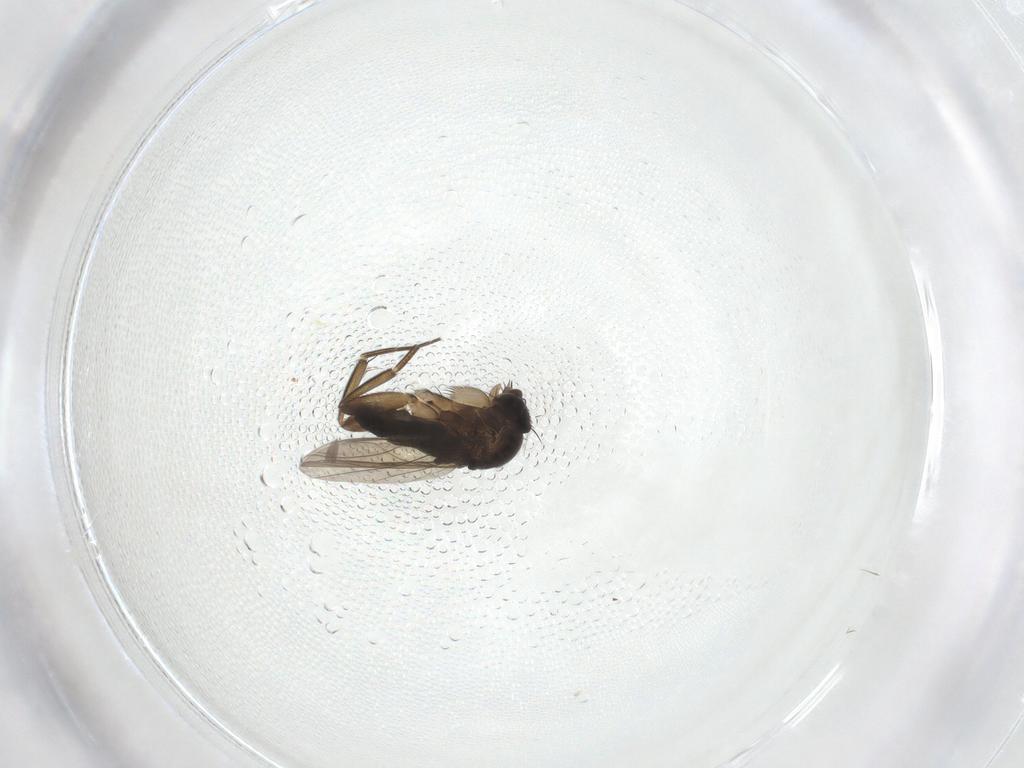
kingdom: Animalia
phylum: Arthropoda
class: Insecta
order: Diptera
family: Phoridae
